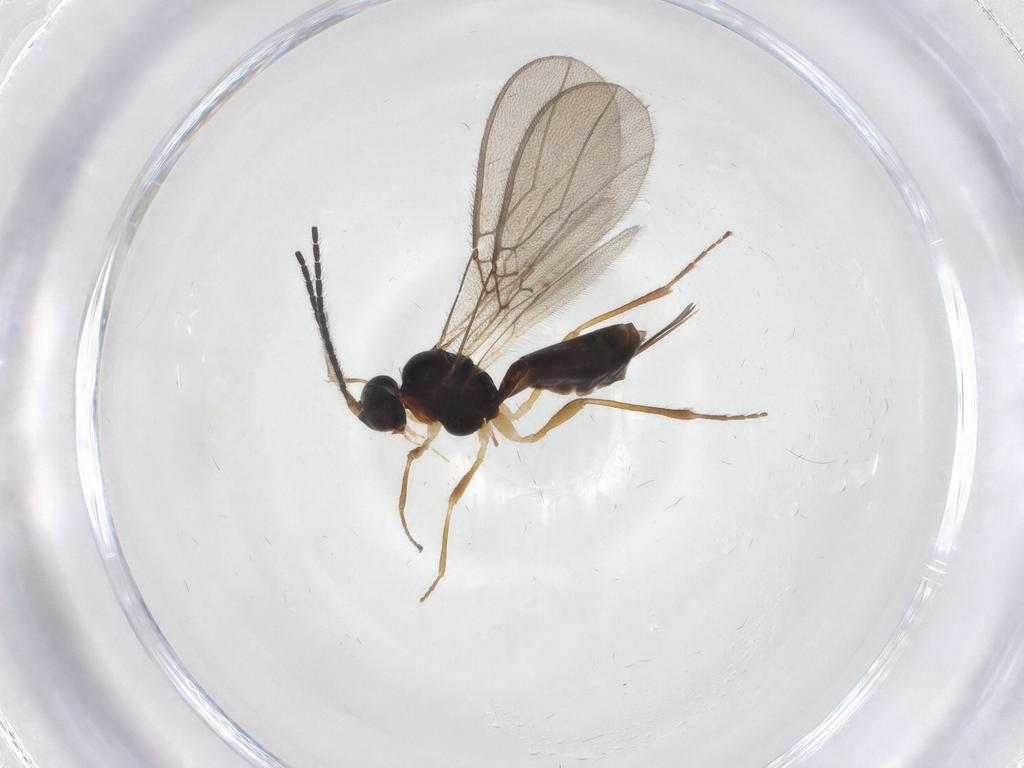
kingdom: Animalia
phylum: Arthropoda
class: Insecta
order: Hymenoptera
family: Braconidae
